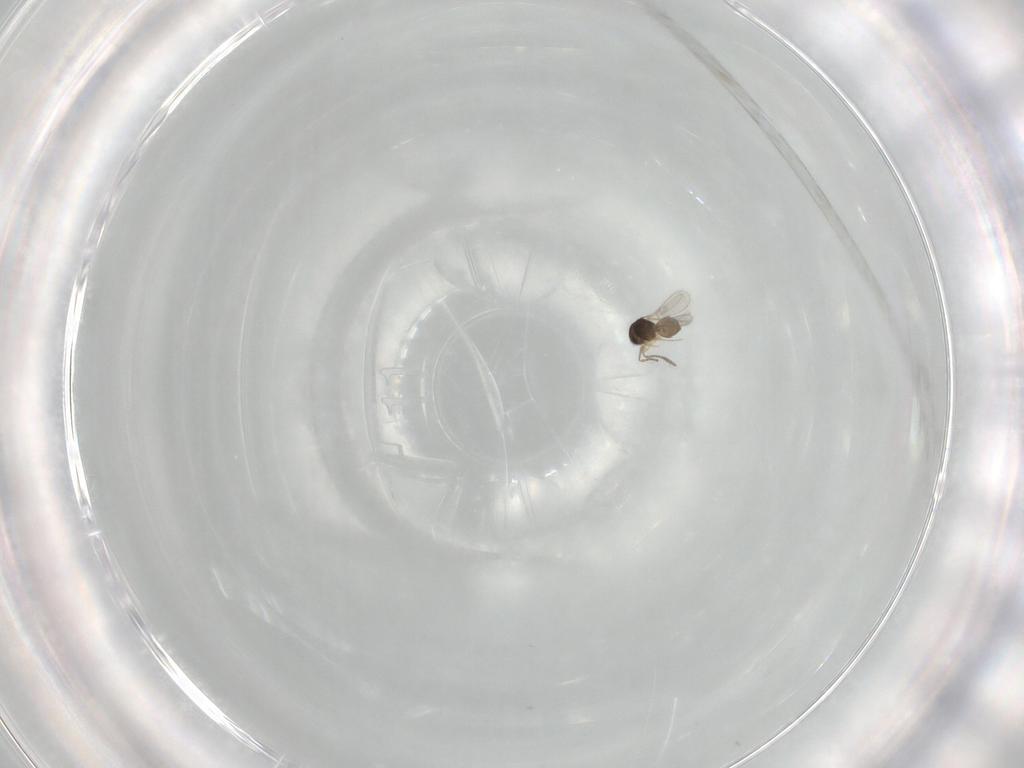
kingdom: Animalia
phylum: Arthropoda
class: Insecta
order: Hymenoptera
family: Scelionidae
